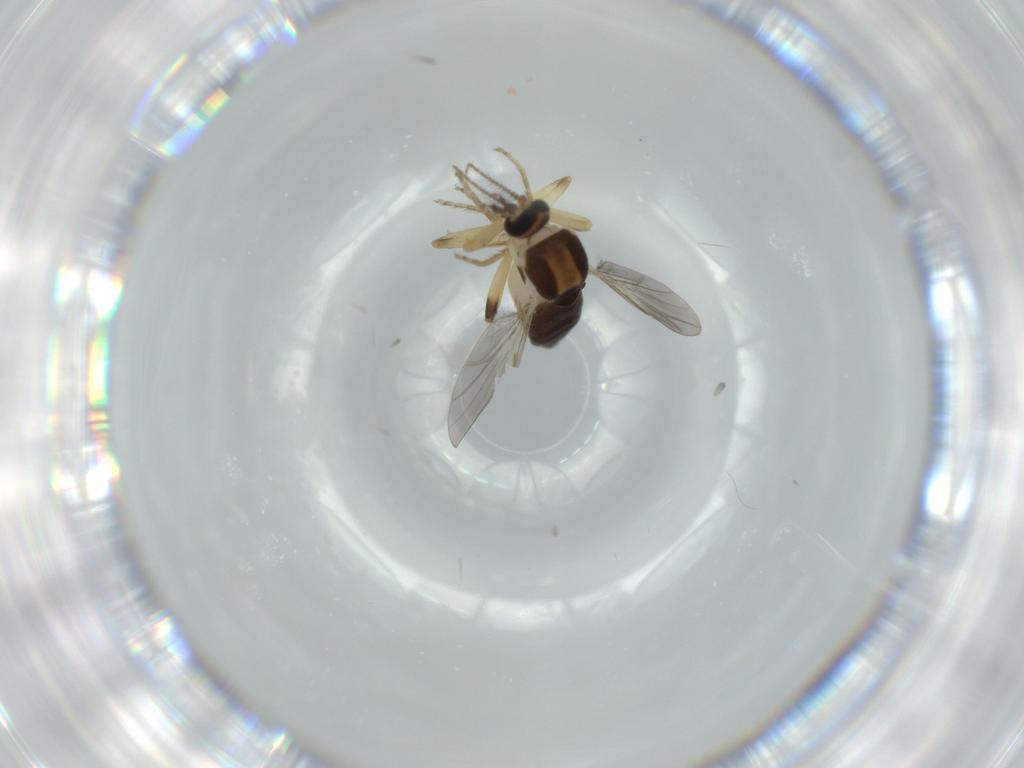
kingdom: Animalia
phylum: Arthropoda
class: Insecta
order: Diptera
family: Ceratopogonidae
